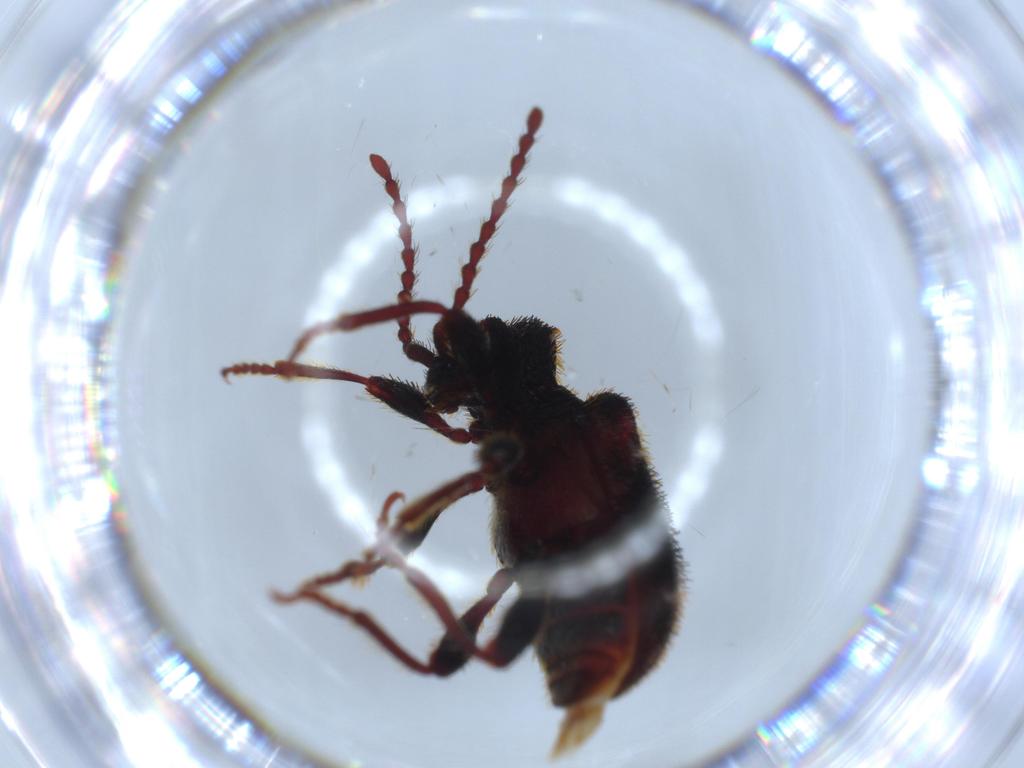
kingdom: Animalia
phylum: Arthropoda
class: Insecta
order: Coleoptera
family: Ptinidae
